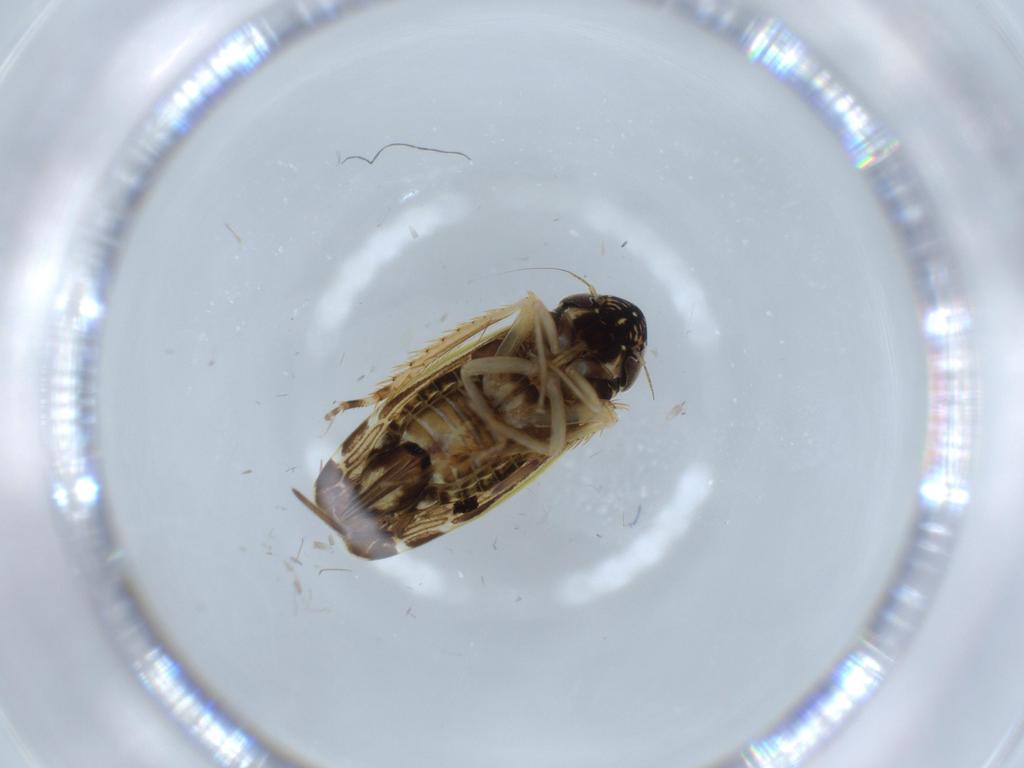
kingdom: Animalia
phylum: Arthropoda
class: Insecta
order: Hemiptera
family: Cicadellidae
